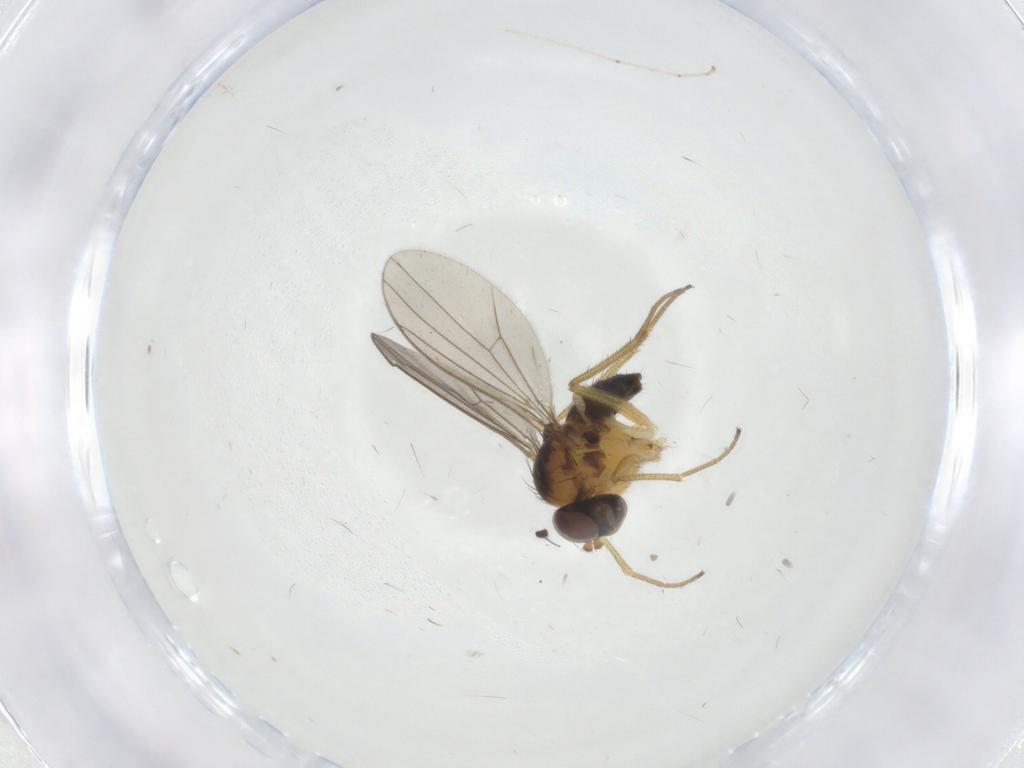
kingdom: Animalia
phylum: Arthropoda
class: Insecta
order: Diptera
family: Dolichopodidae
